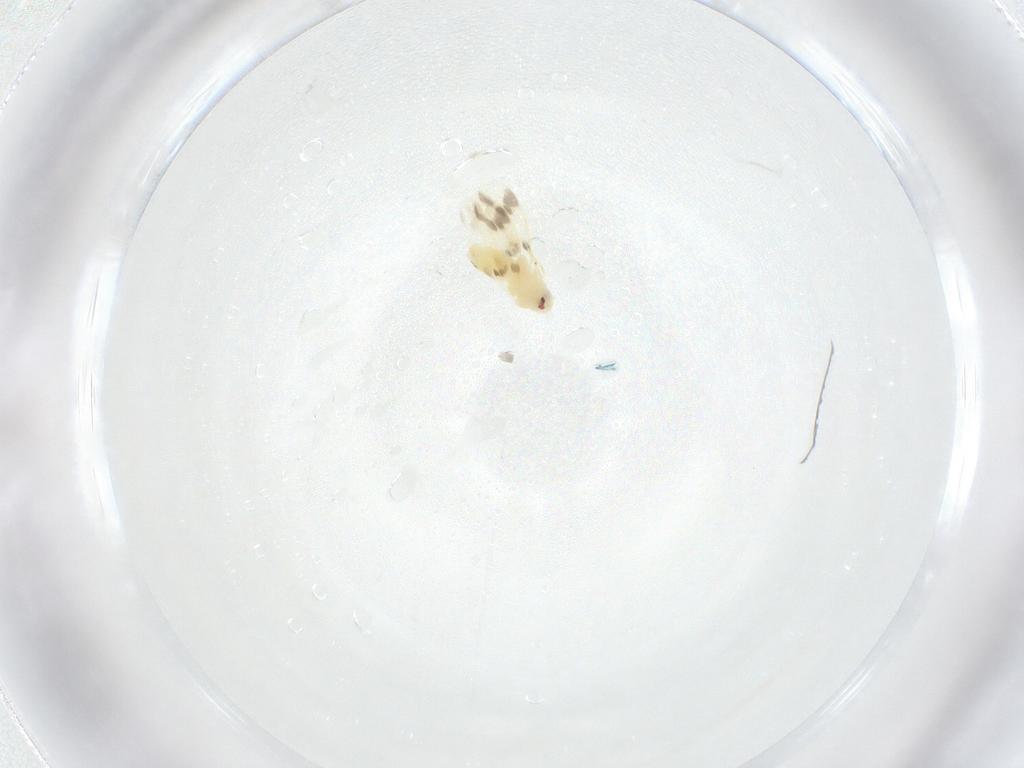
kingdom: Animalia
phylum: Arthropoda
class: Insecta
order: Hemiptera
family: Aleyrodidae
